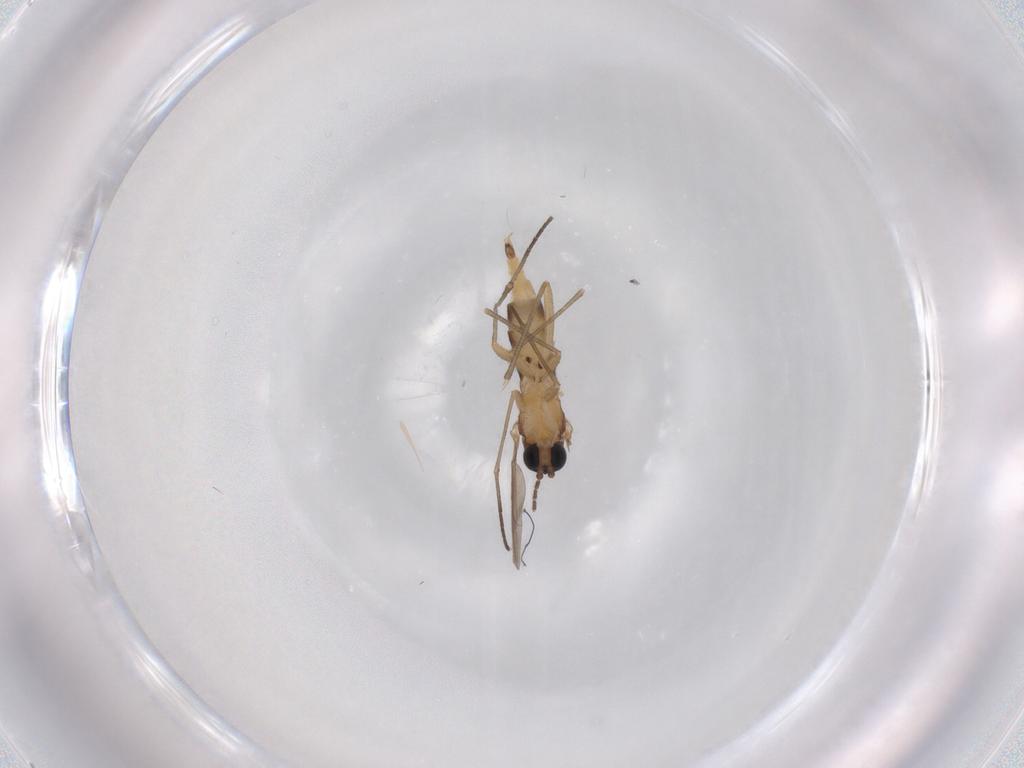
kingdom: Animalia
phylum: Arthropoda
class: Insecta
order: Diptera
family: Sciaridae
